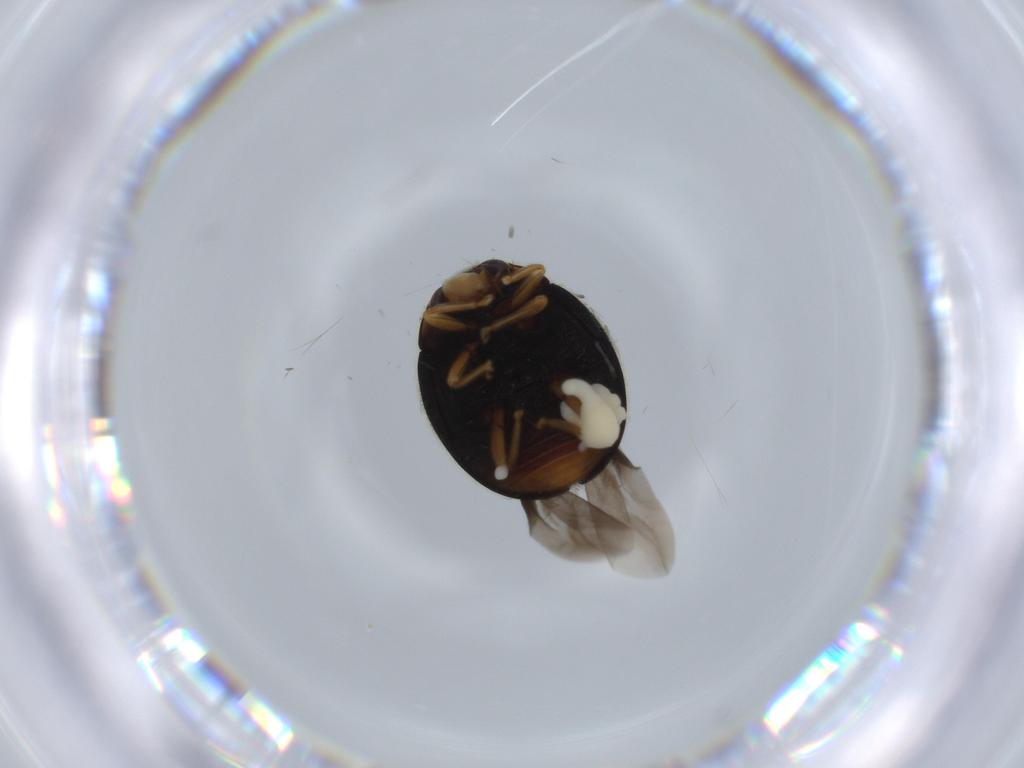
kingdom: Animalia
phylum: Arthropoda
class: Insecta
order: Coleoptera
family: Coccinellidae
